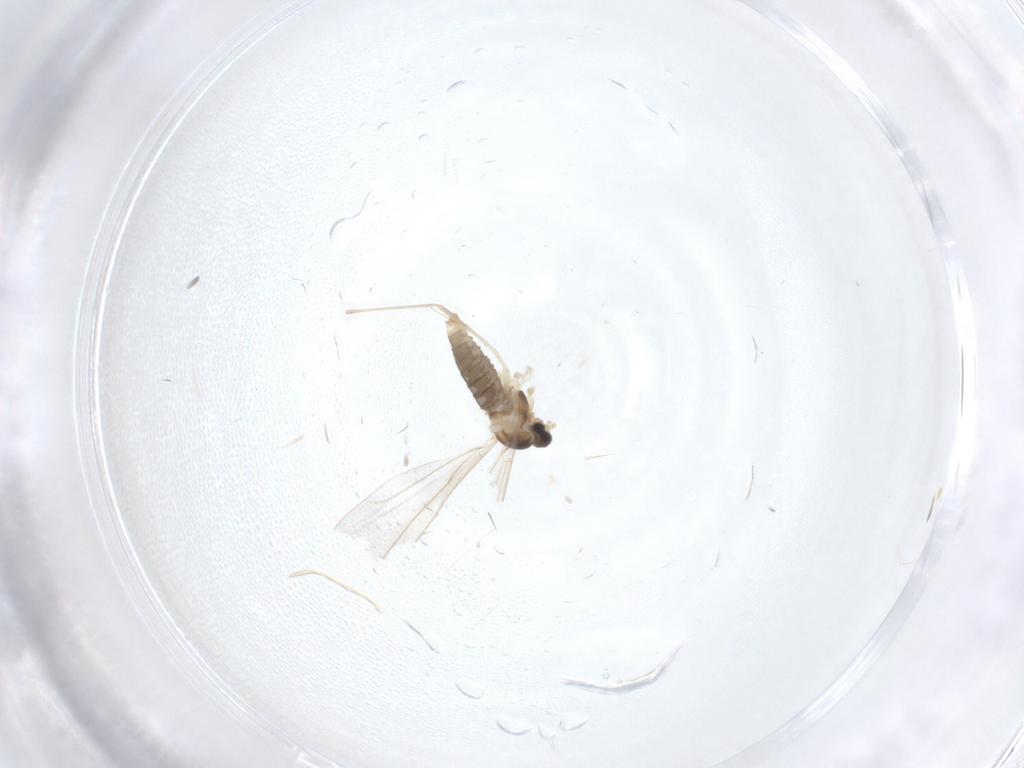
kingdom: Animalia
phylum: Arthropoda
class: Insecta
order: Diptera
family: Cecidomyiidae
